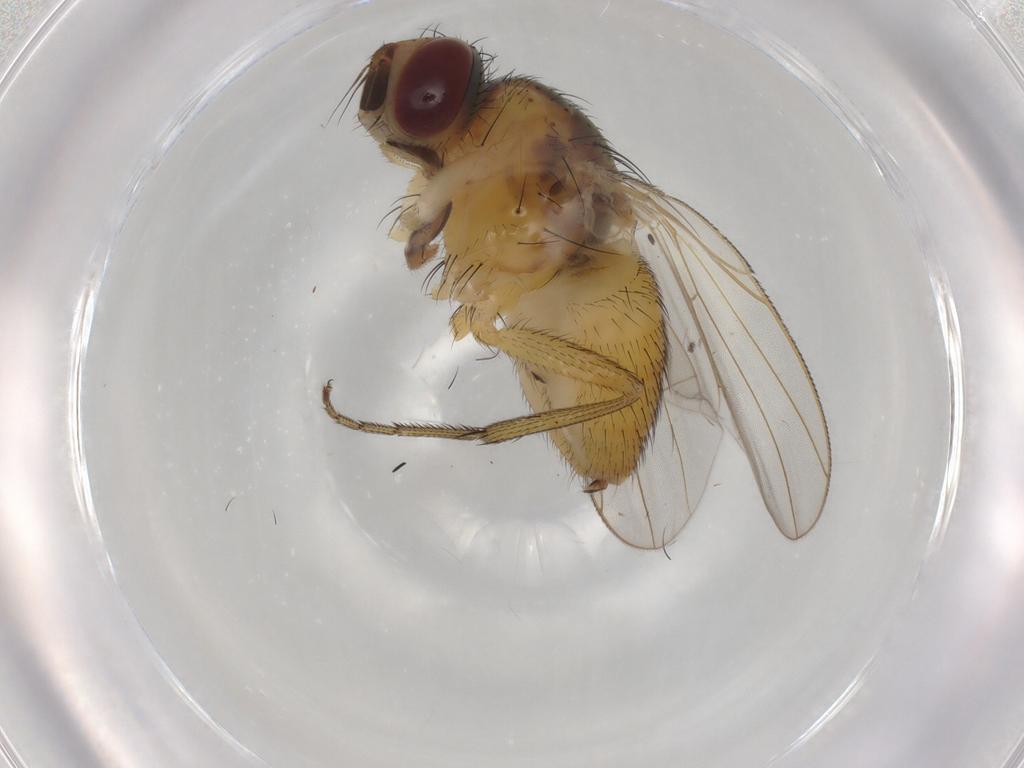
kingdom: Animalia
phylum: Arthropoda
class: Insecta
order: Diptera
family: Muscidae
